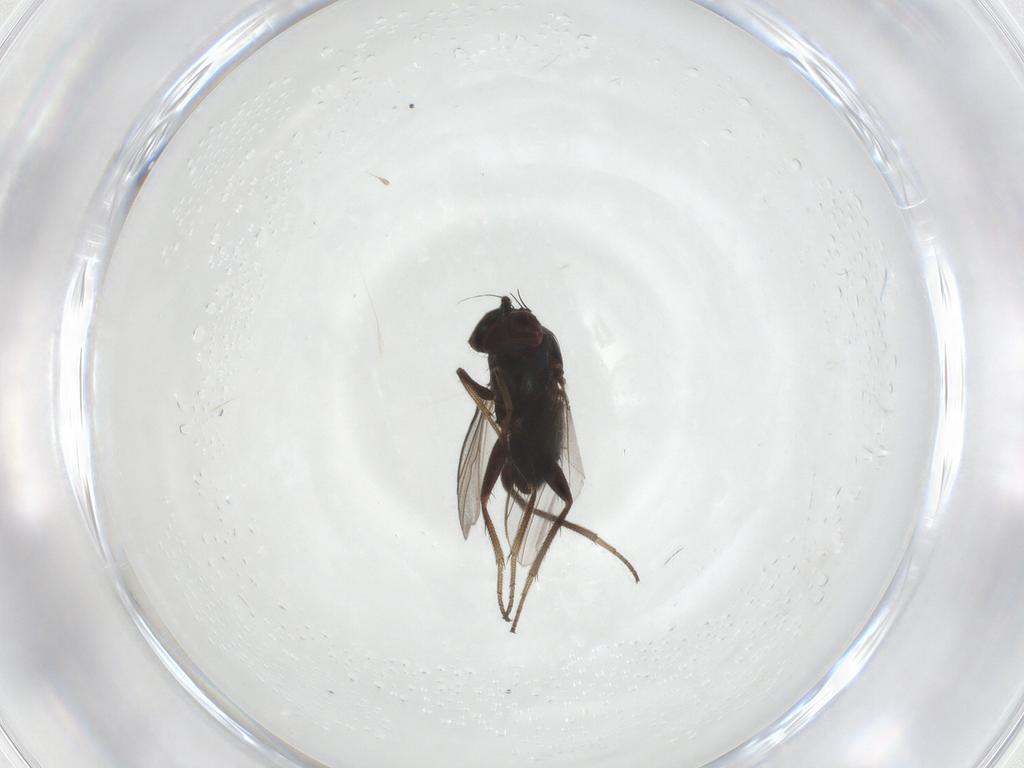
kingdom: Animalia
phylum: Arthropoda
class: Insecta
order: Diptera
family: Dolichopodidae
